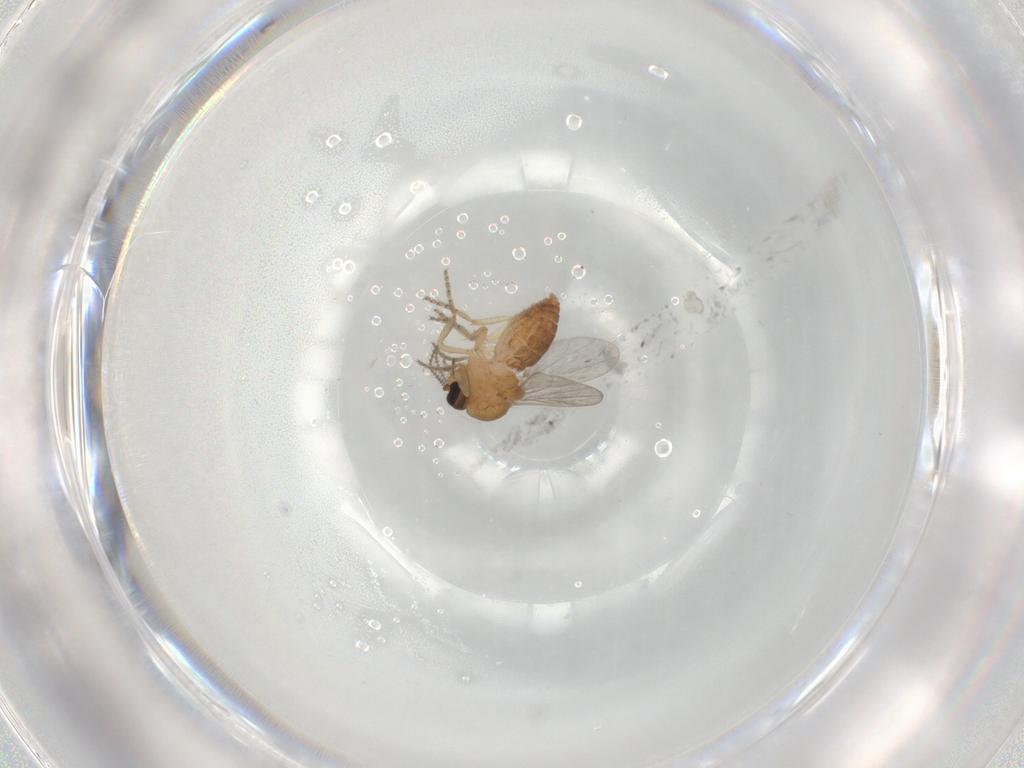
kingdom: Animalia
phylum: Arthropoda
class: Insecta
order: Diptera
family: Ceratopogonidae
